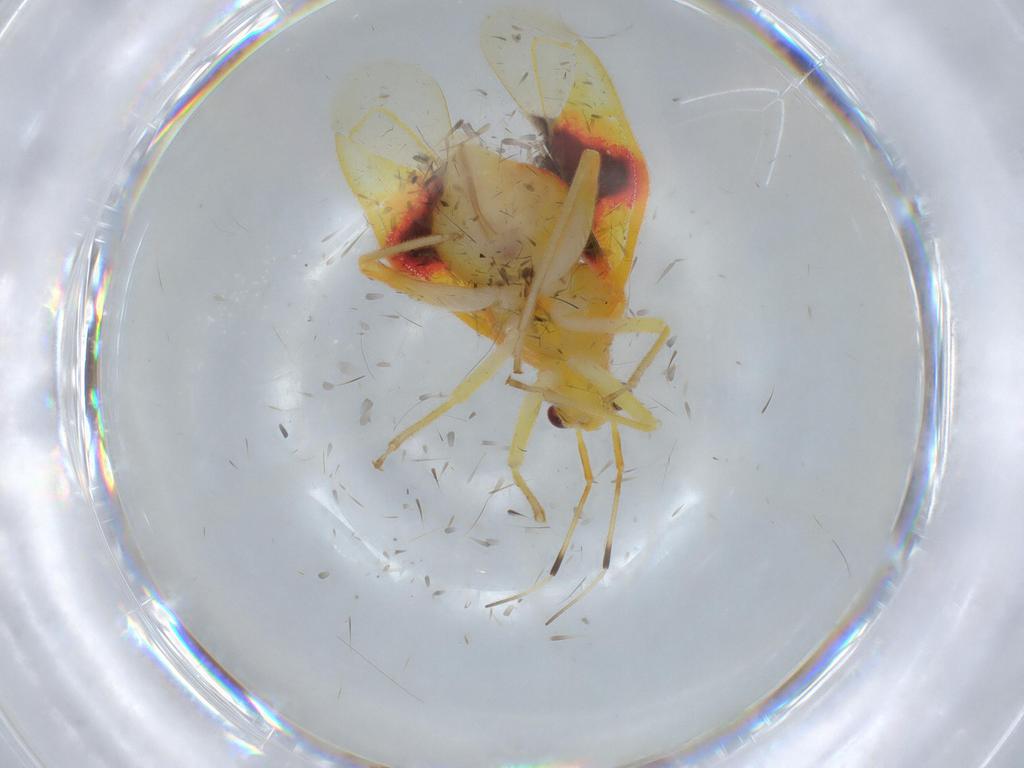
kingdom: Animalia
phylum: Arthropoda
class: Insecta
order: Hemiptera
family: Miridae
